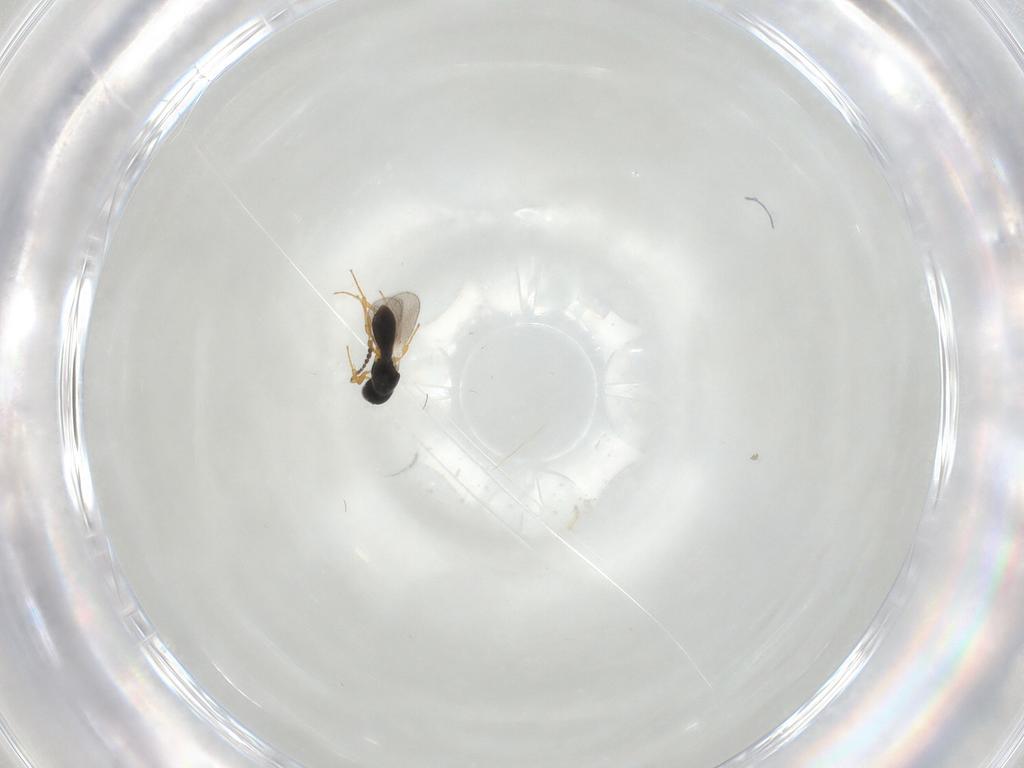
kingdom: Animalia
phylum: Arthropoda
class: Insecta
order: Hymenoptera
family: Platygastridae
